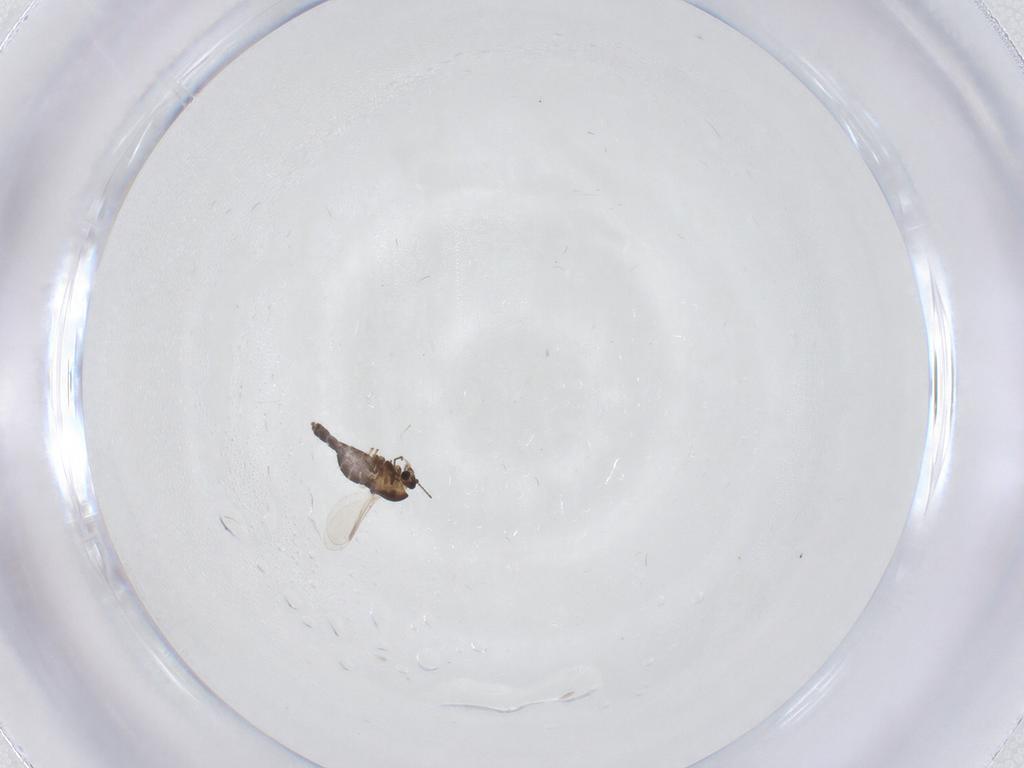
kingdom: Animalia
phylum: Arthropoda
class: Insecta
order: Diptera
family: Chironomidae
